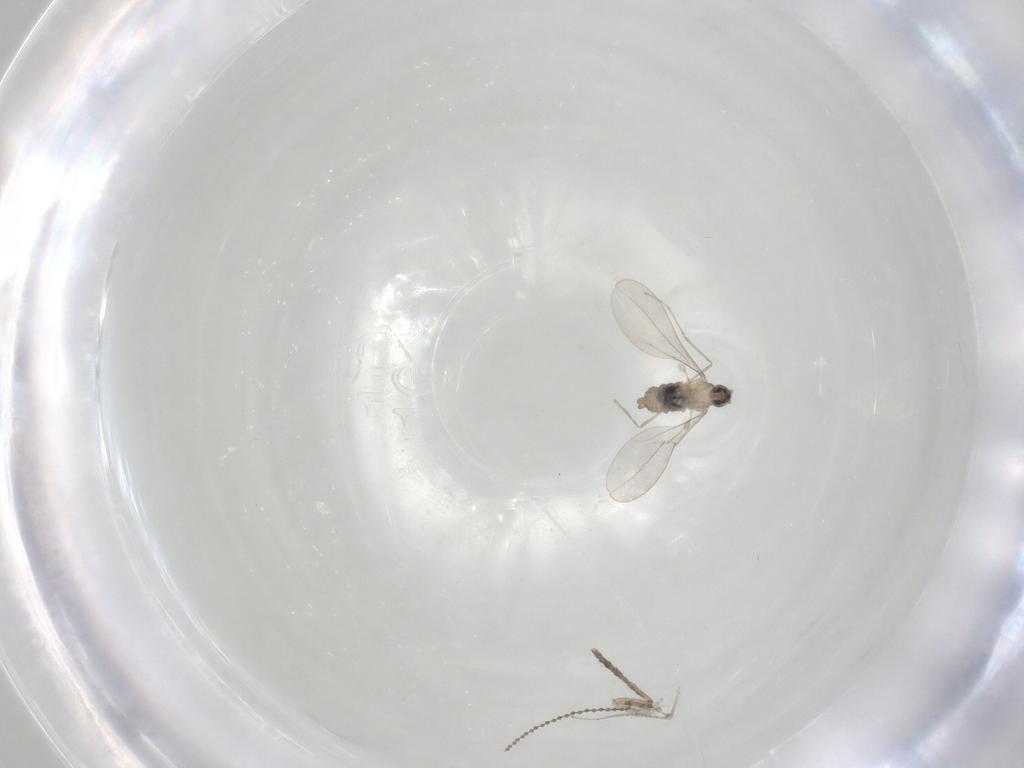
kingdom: Animalia
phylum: Arthropoda
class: Insecta
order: Diptera
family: Cecidomyiidae
